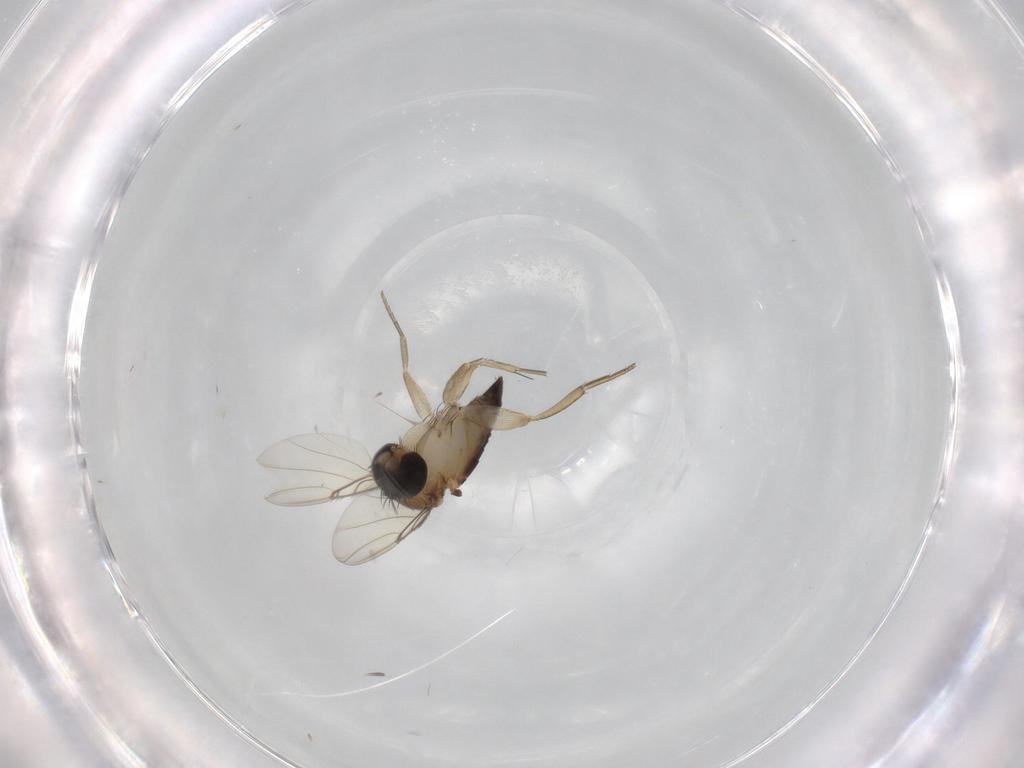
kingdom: Animalia
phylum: Arthropoda
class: Insecta
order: Diptera
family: Phoridae
